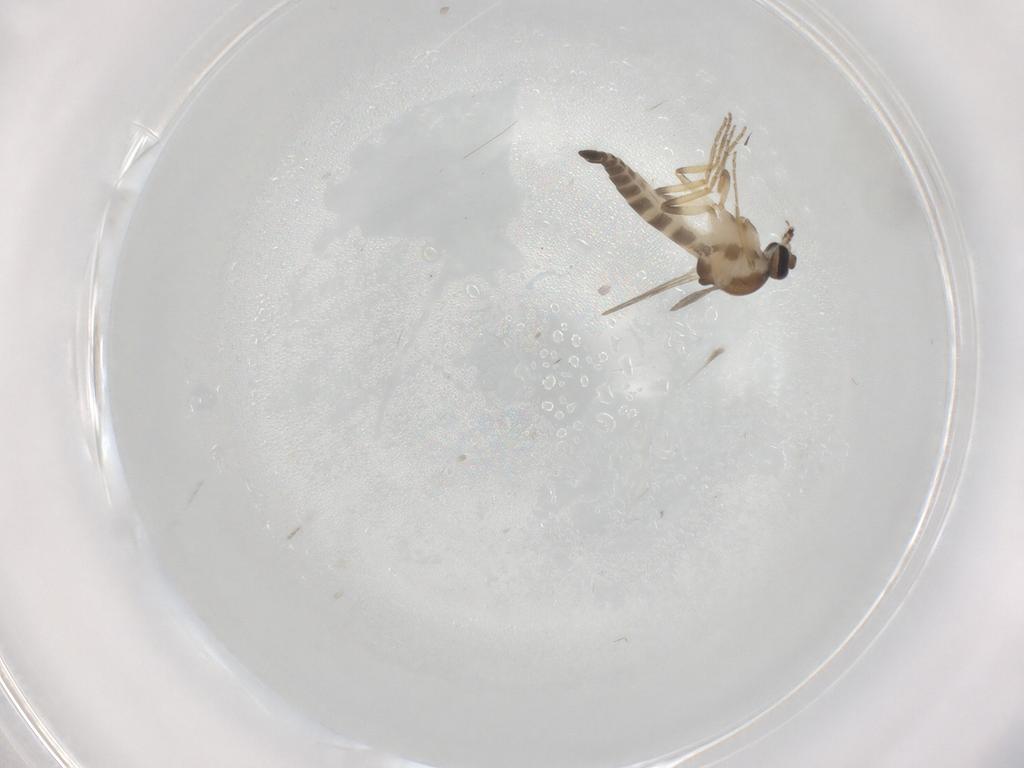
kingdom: Animalia
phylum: Arthropoda
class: Insecta
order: Diptera
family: Ceratopogonidae
